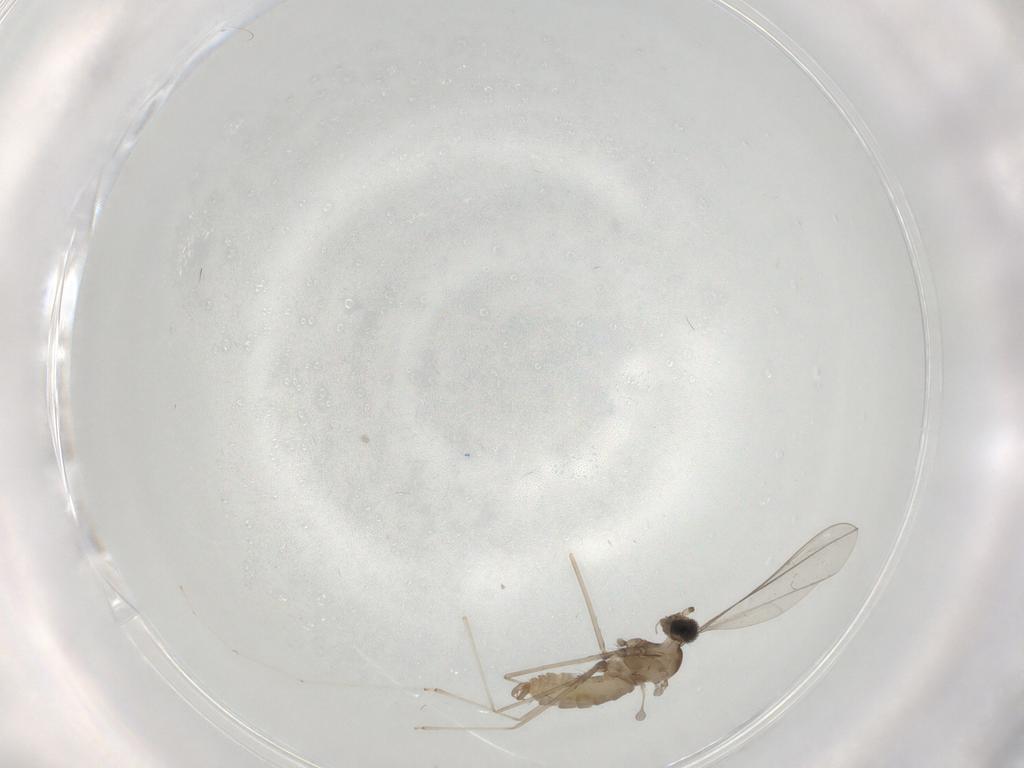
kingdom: Animalia
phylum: Arthropoda
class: Insecta
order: Diptera
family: Cecidomyiidae
